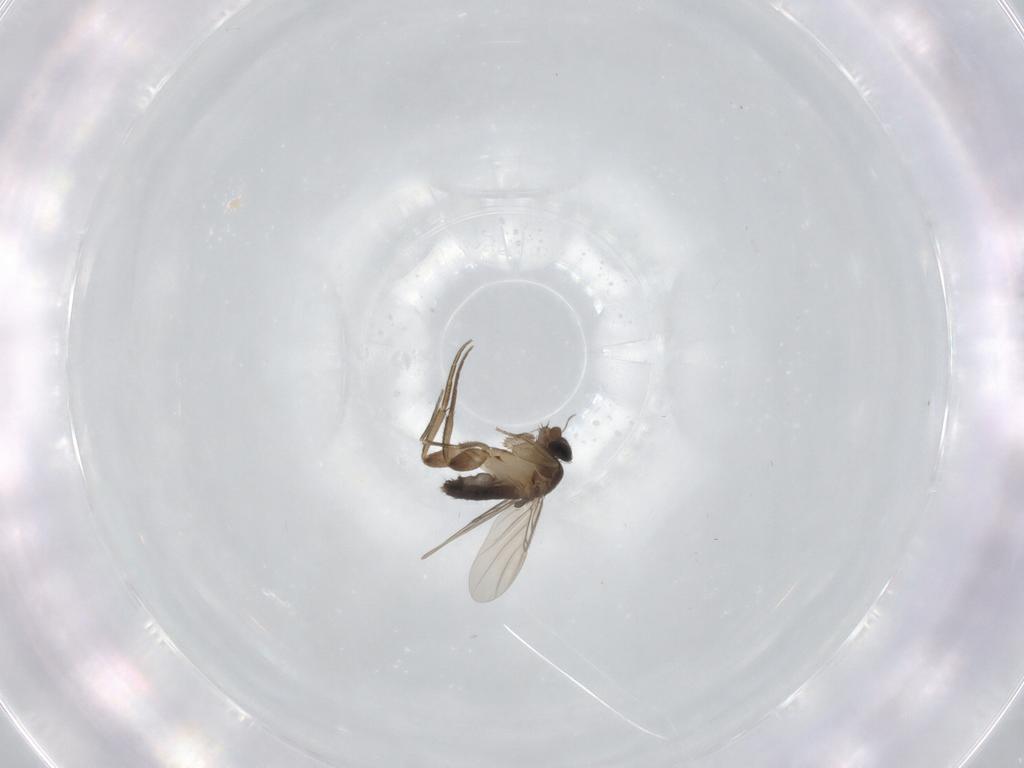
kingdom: Animalia
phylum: Arthropoda
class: Insecta
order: Diptera
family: Phoridae
